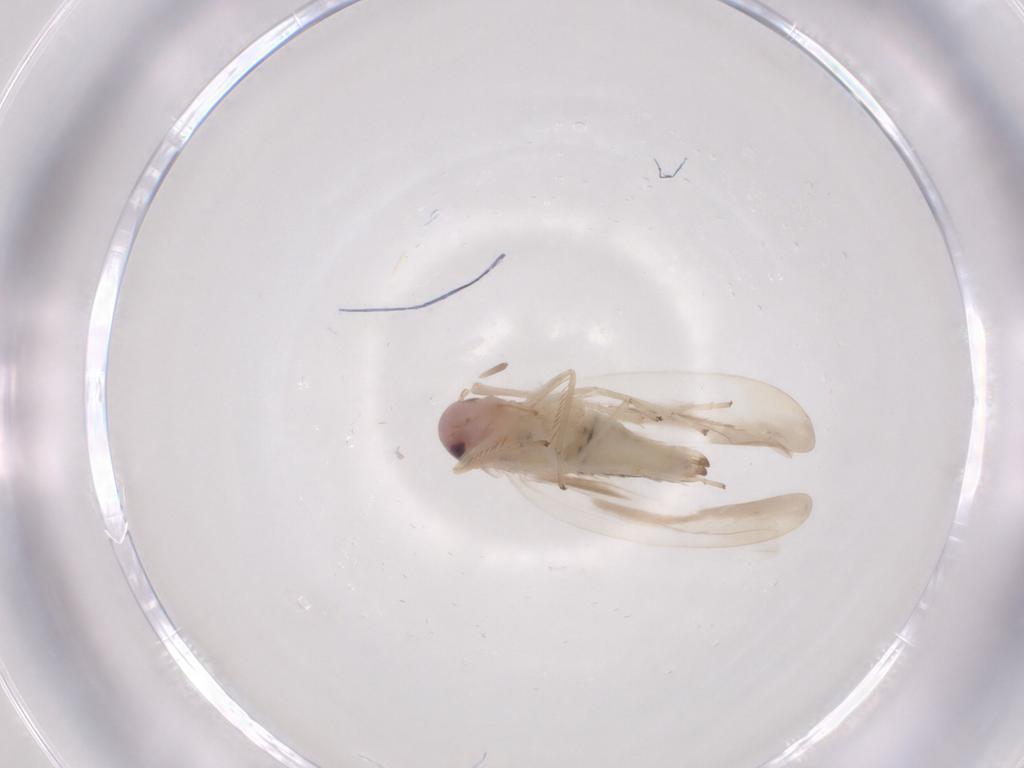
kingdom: Animalia
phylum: Arthropoda
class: Insecta
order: Hemiptera
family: Cicadellidae
